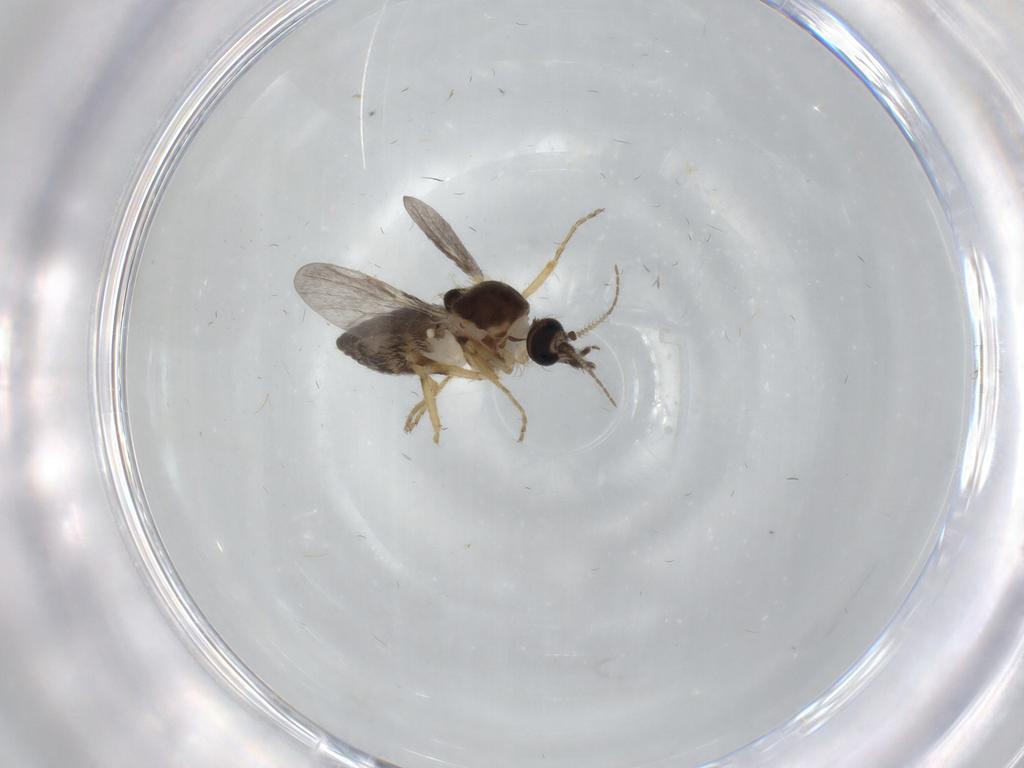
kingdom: Animalia
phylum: Arthropoda
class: Insecta
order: Diptera
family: Ceratopogonidae
